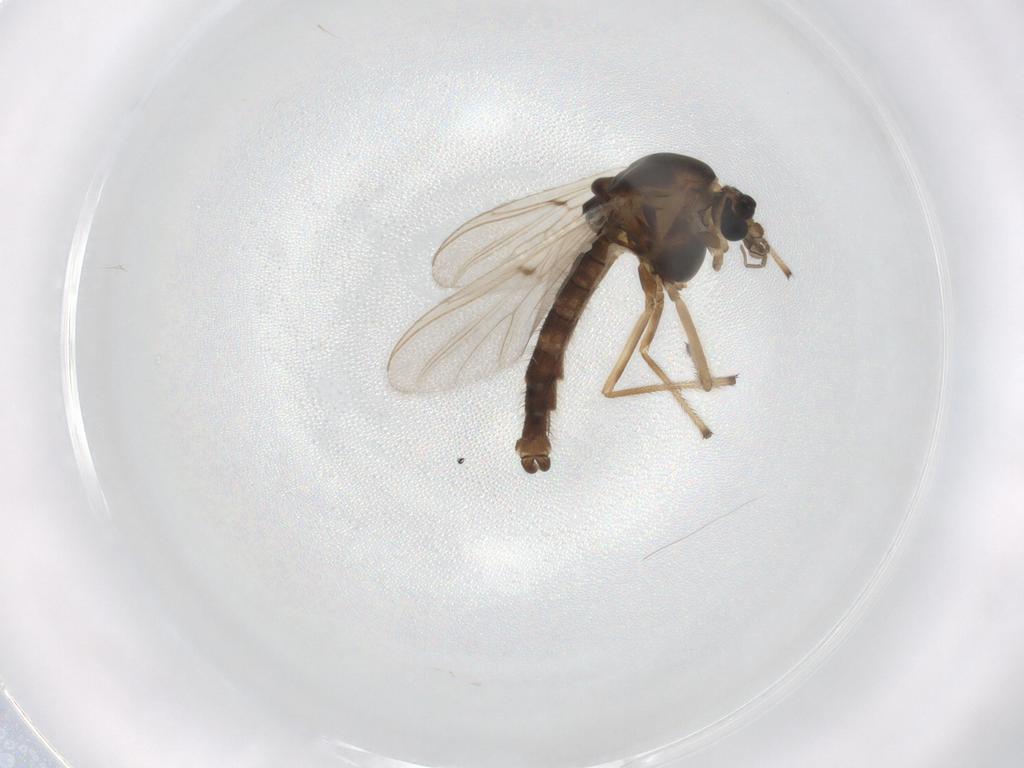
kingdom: Animalia
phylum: Arthropoda
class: Insecta
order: Diptera
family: Chironomidae
